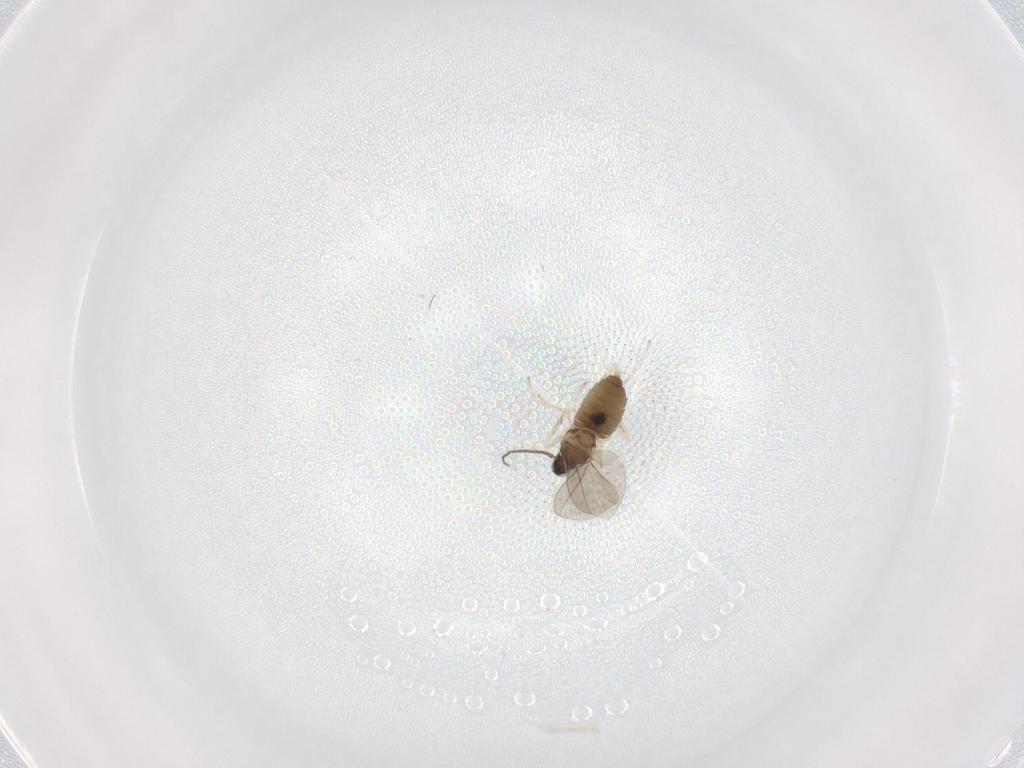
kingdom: Animalia
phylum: Arthropoda
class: Insecta
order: Diptera
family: Cecidomyiidae
